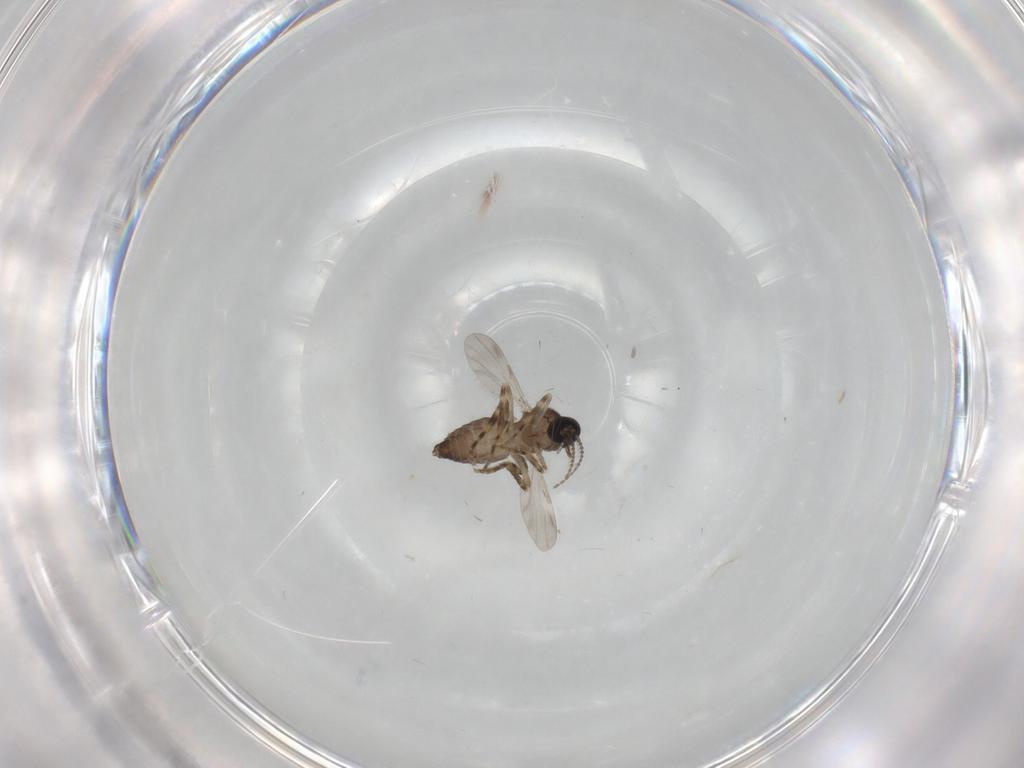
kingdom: Animalia
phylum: Arthropoda
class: Insecta
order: Diptera
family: Ceratopogonidae
